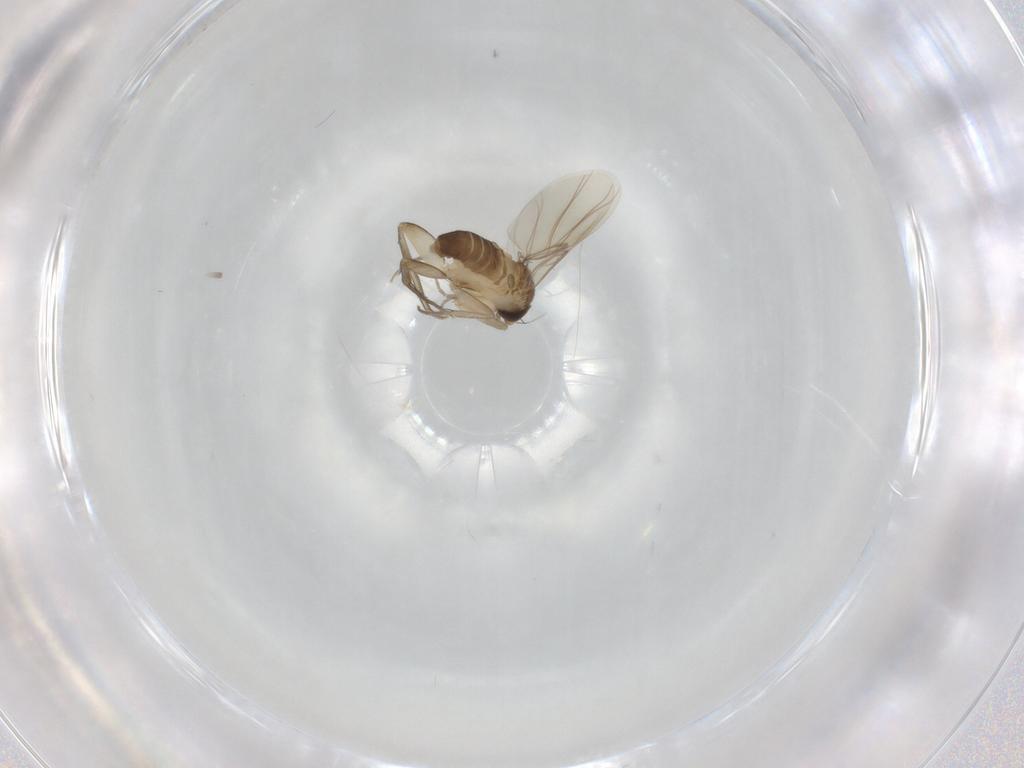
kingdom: Animalia
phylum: Arthropoda
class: Insecta
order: Diptera
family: Phoridae
